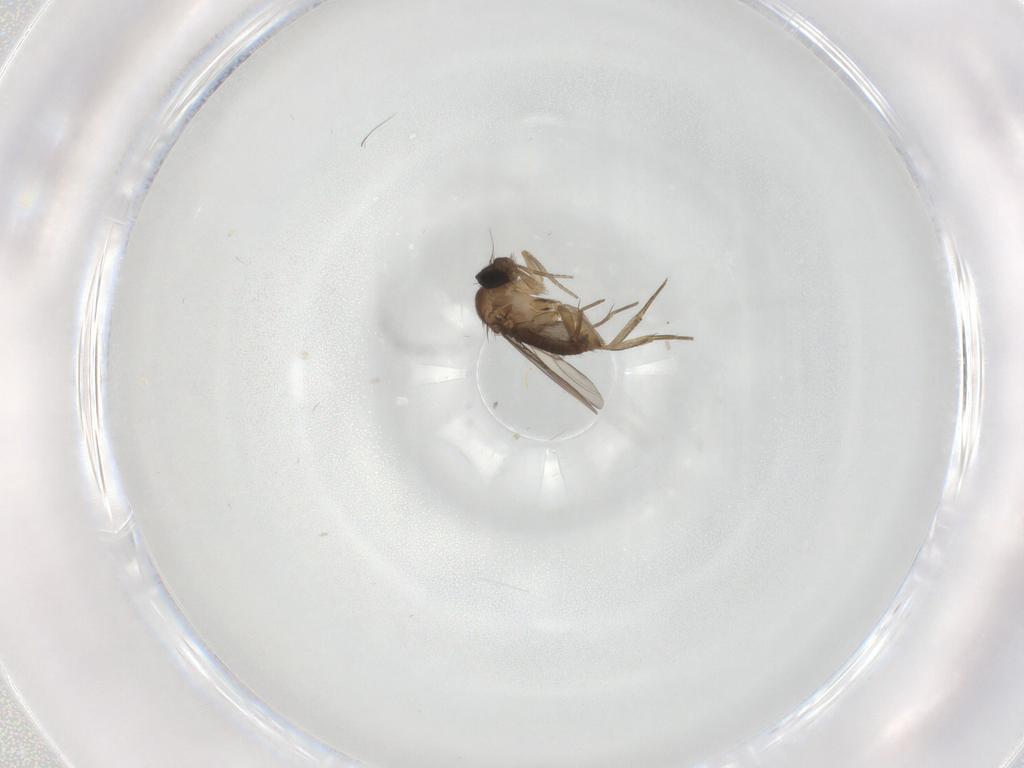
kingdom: Animalia
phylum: Arthropoda
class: Insecta
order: Diptera
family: Phoridae
